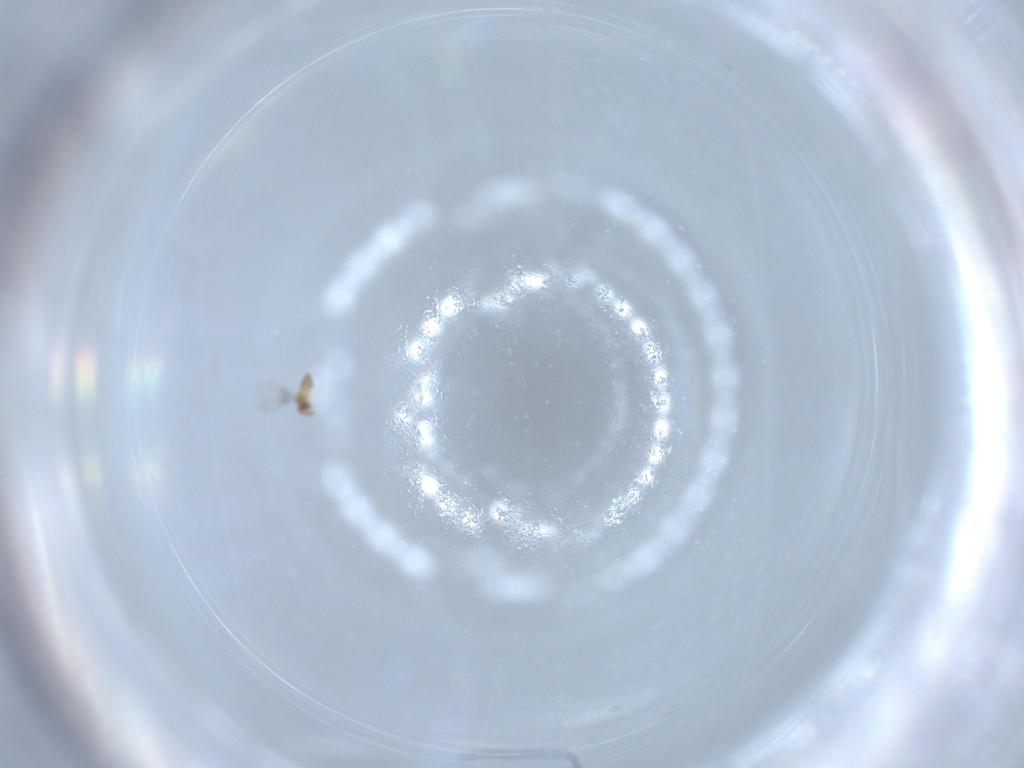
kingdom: Animalia
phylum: Arthropoda
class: Insecta
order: Hymenoptera
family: Trichogrammatidae
